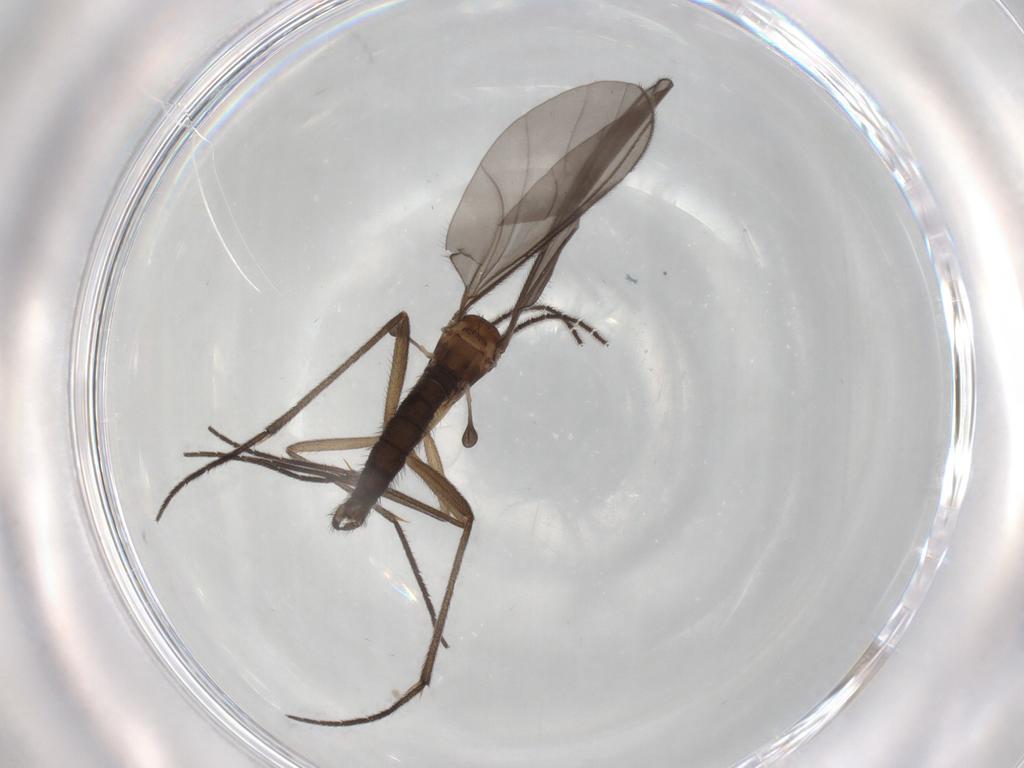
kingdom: Animalia
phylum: Arthropoda
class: Insecta
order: Diptera
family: Sciaridae
